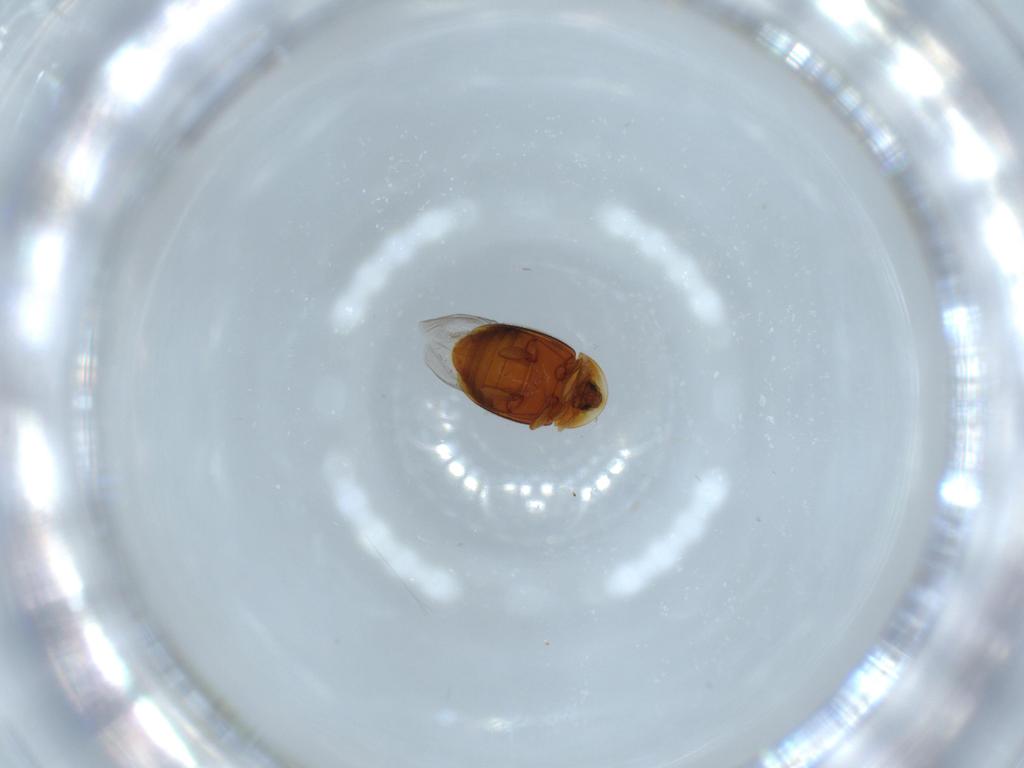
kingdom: Animalia
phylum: Arthropoda
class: Insecta
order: Coleoptera
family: Corylophidae
